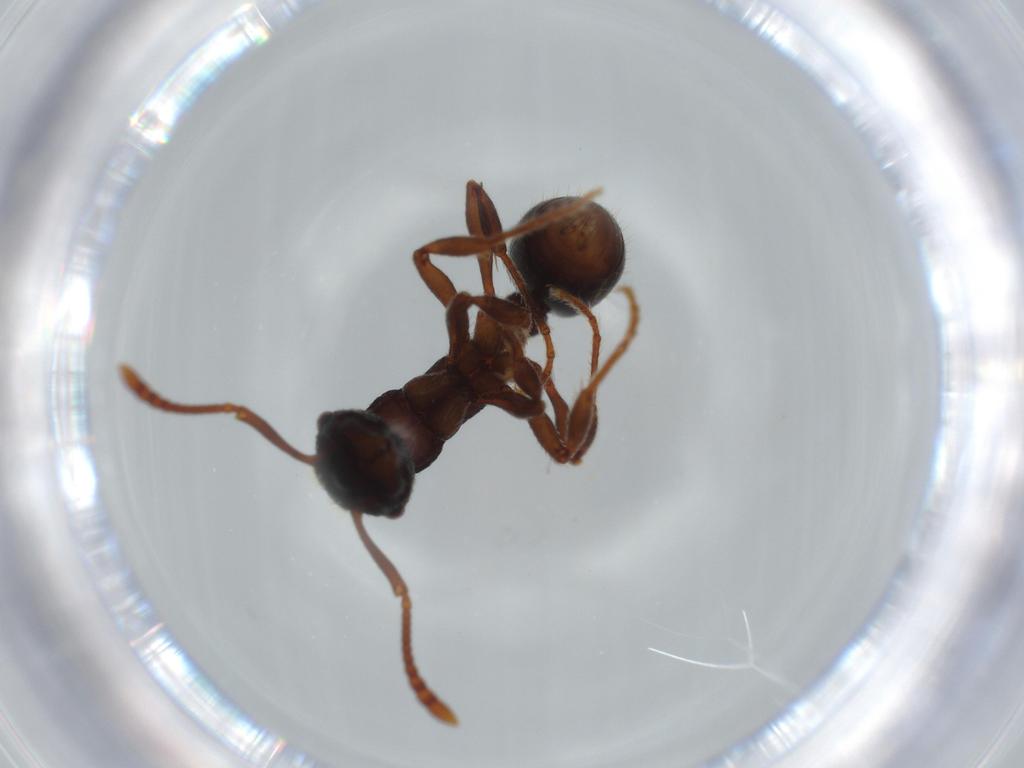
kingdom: Animalia
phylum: Arthropoda
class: Insecta
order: Hymenoptera
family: Formicidae
